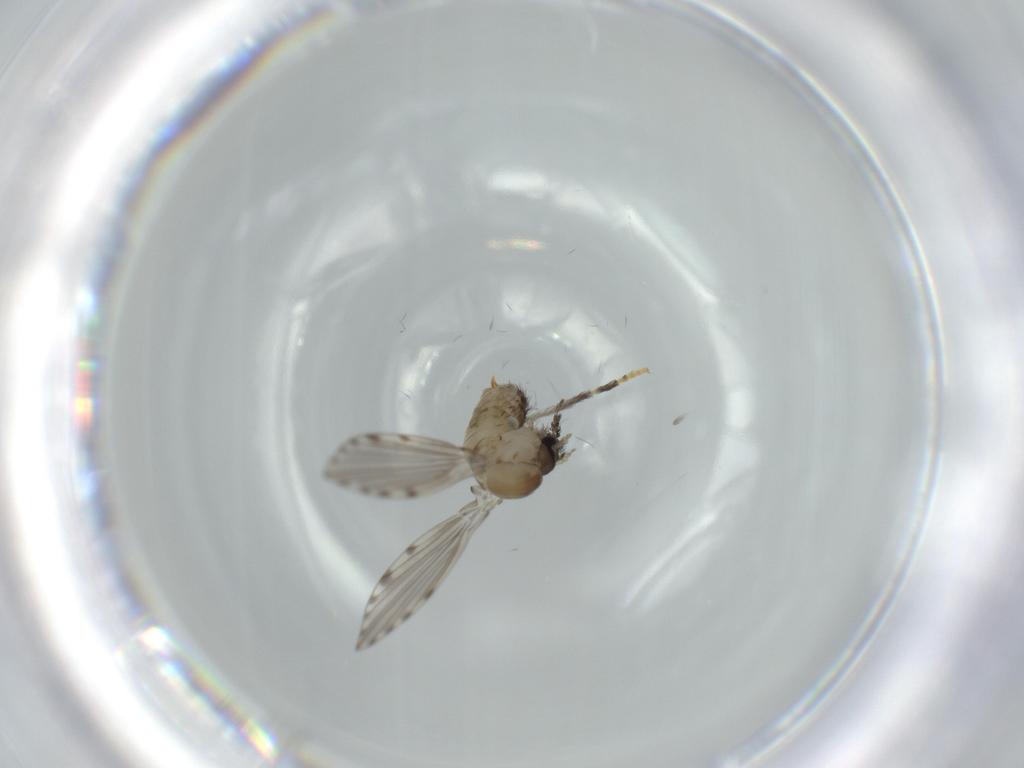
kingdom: Animalia
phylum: Arthropoda
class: Insecta
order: Diptera
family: Psychodidae
